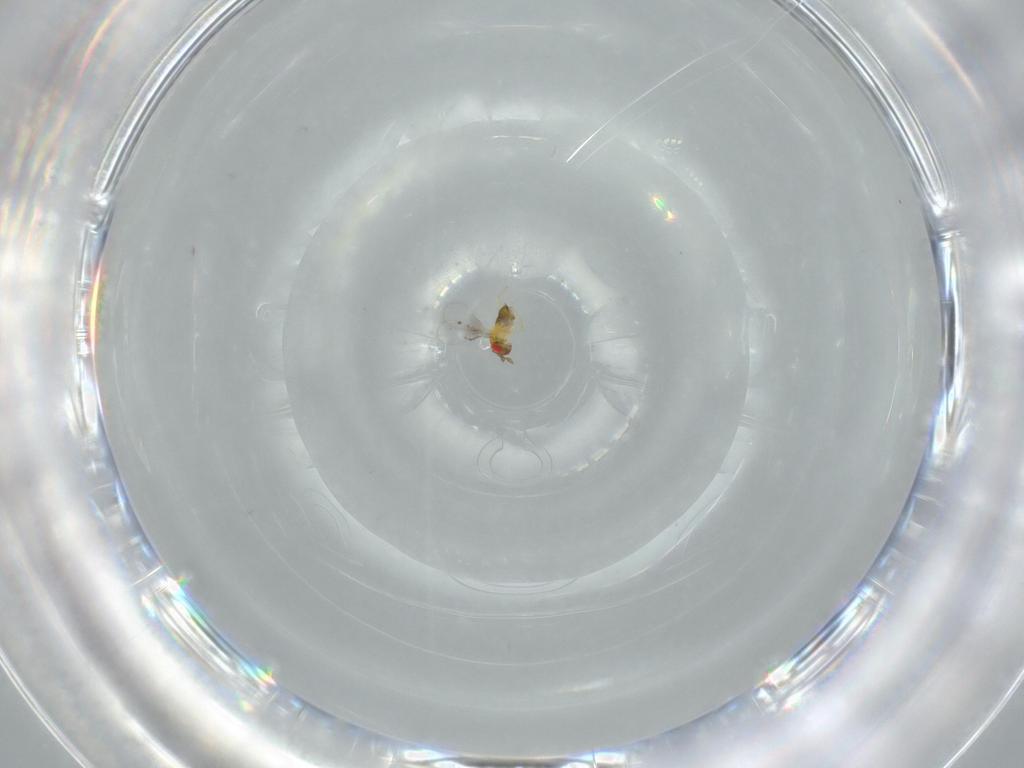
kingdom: Animalia
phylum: Arthropoda
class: Insecta
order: Hymenoptera
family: Trichogrammatidae
